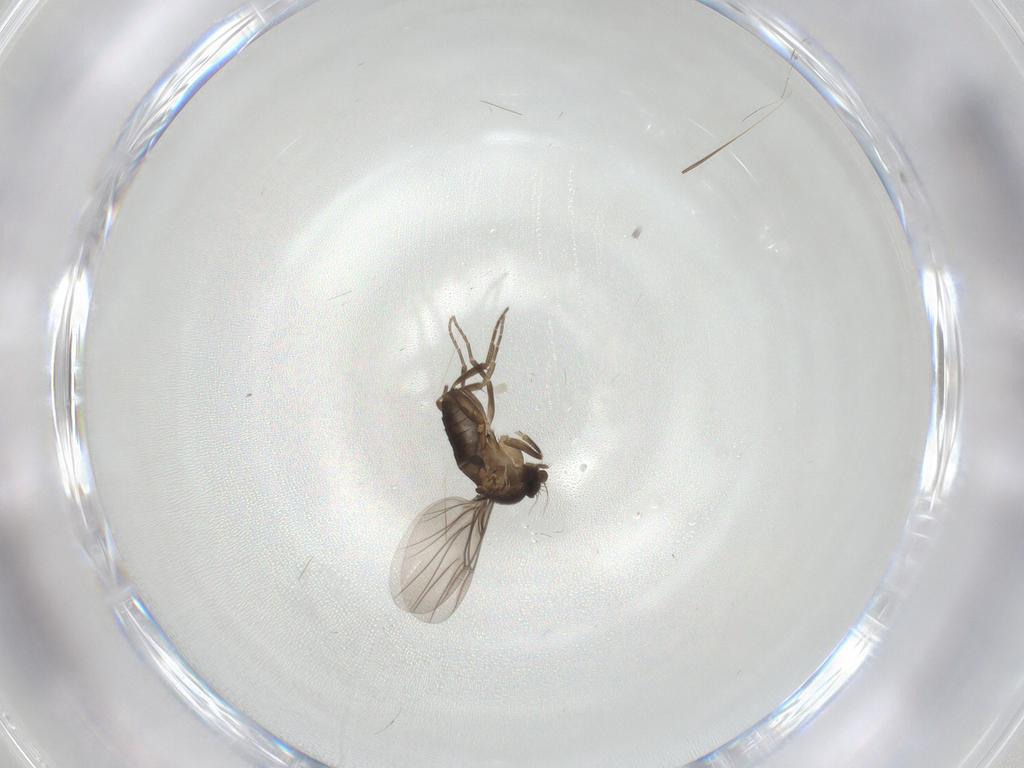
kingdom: Animalia
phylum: Arthropoda
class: Insecta
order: Diptera
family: Cecidomyiidae
